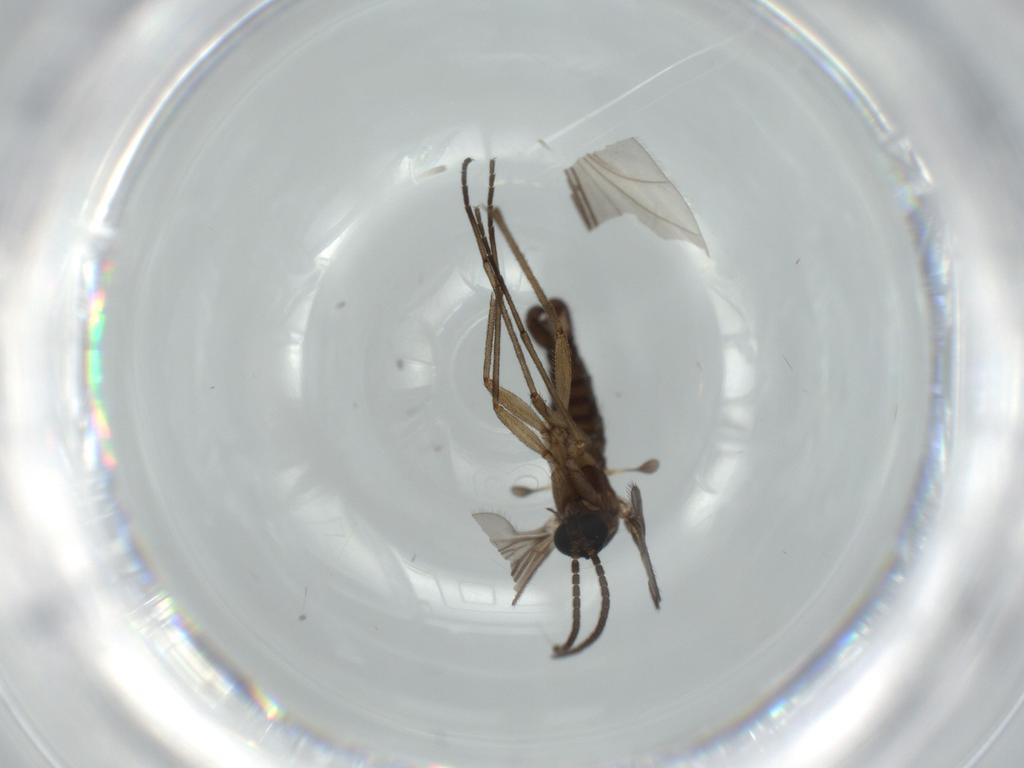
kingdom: Animalia
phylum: Arthropoda
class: Insecta
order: Diptera
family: Sciaridae
